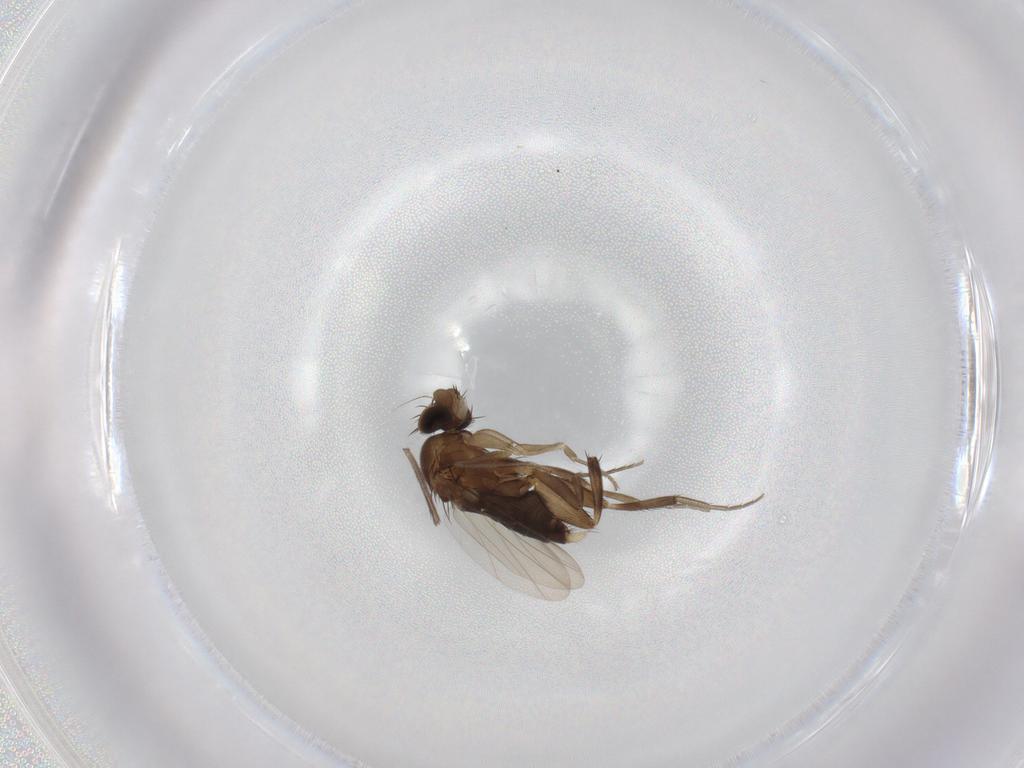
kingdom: Animalia
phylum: Arthropoda
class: Insecta
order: Diptera
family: Phoridae
